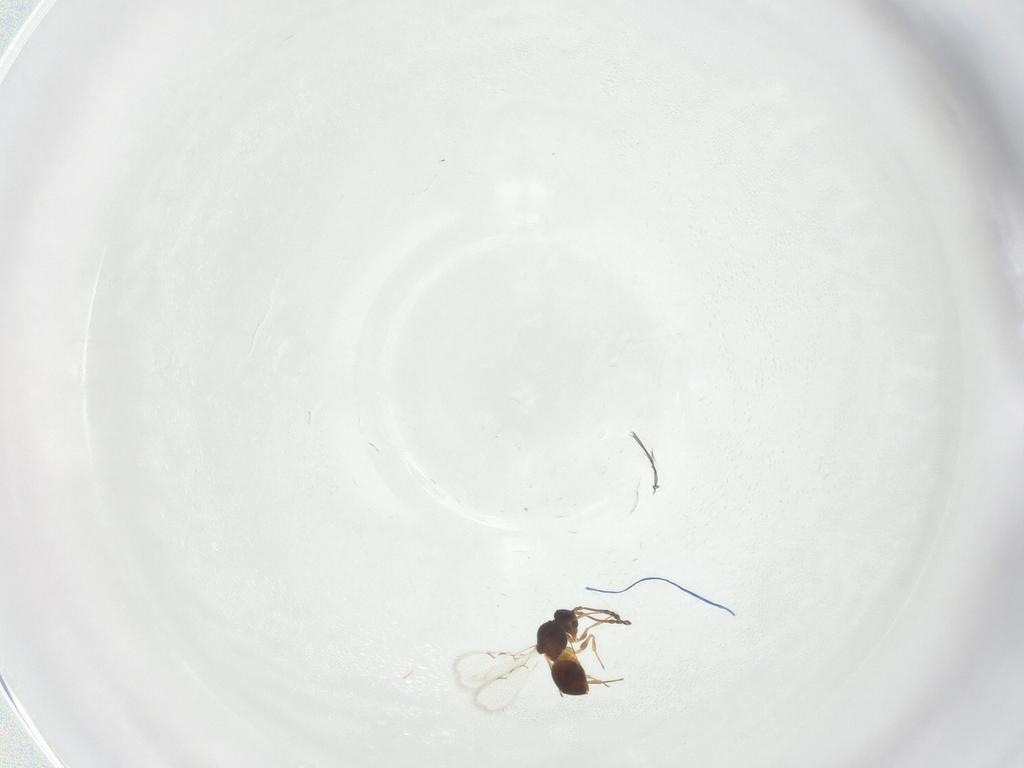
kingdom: Animalia
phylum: Arthropoda
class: Insecta
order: Hymenoptera
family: Figitidae
